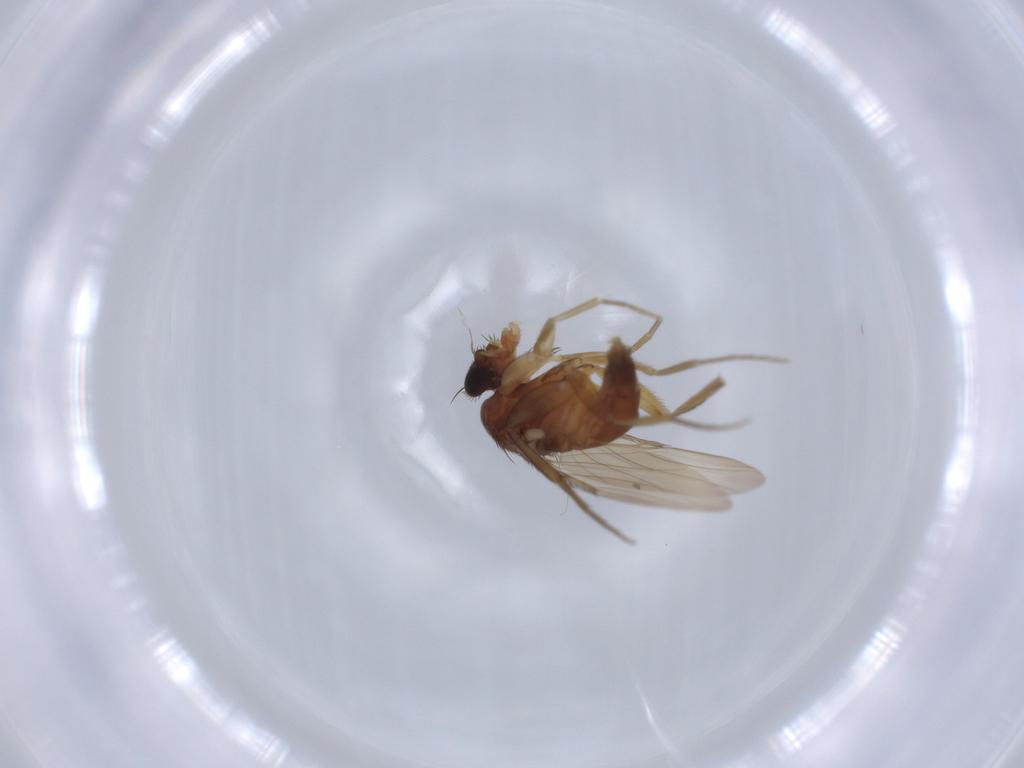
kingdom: Animalia
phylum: Arthropoda
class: Insecta
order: Diptera
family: Phoridae
